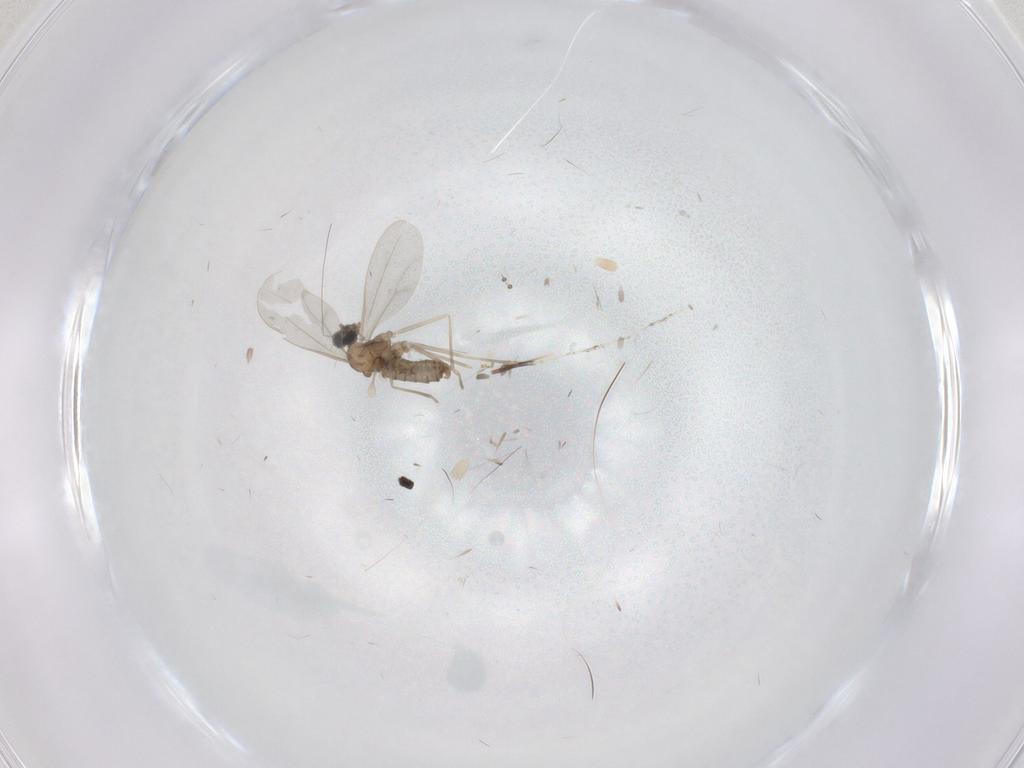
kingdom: Animalia
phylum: Arthropoda
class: Insecta
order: Diptera
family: Cecidomyiidae
